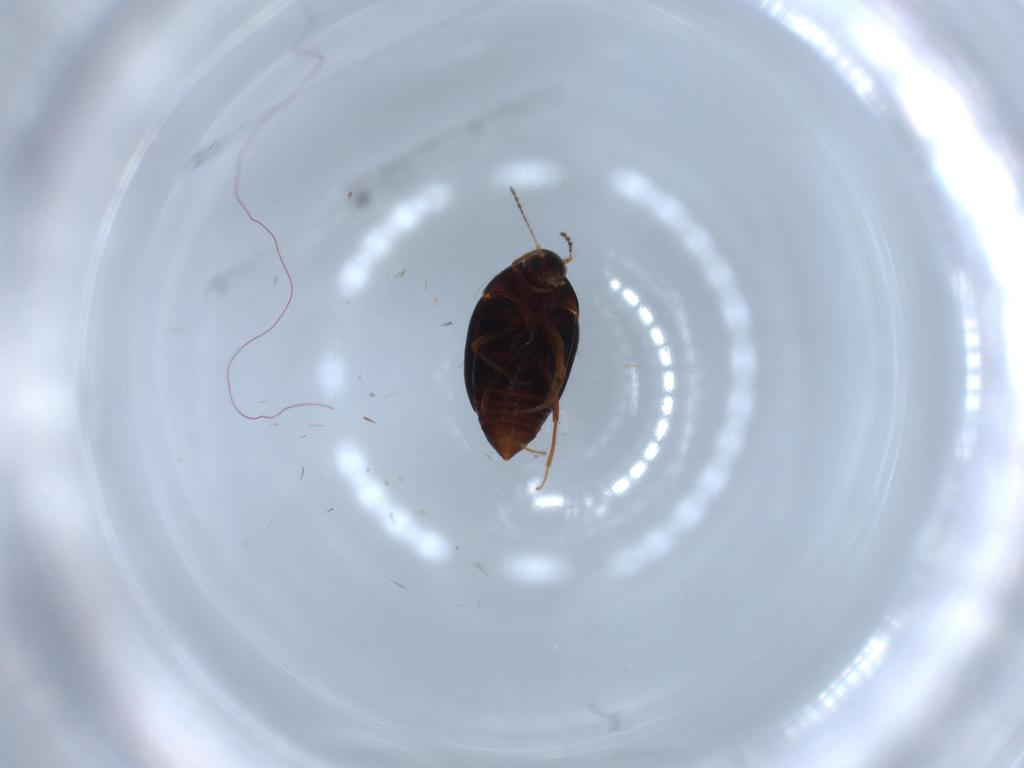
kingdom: Animalia
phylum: Arthropoda
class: Insecta
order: Coleoptera
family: Staphylinidae
